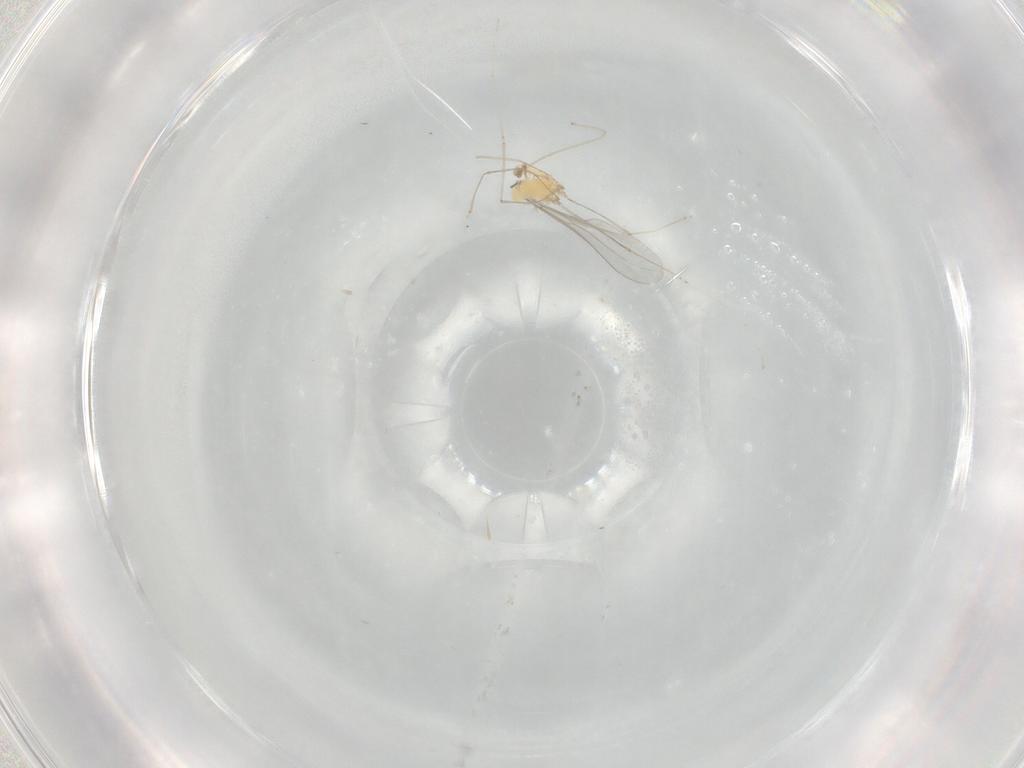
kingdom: Animalia
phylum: Arthropoda
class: Insecta
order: Diptera
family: Cecidomyiidae
